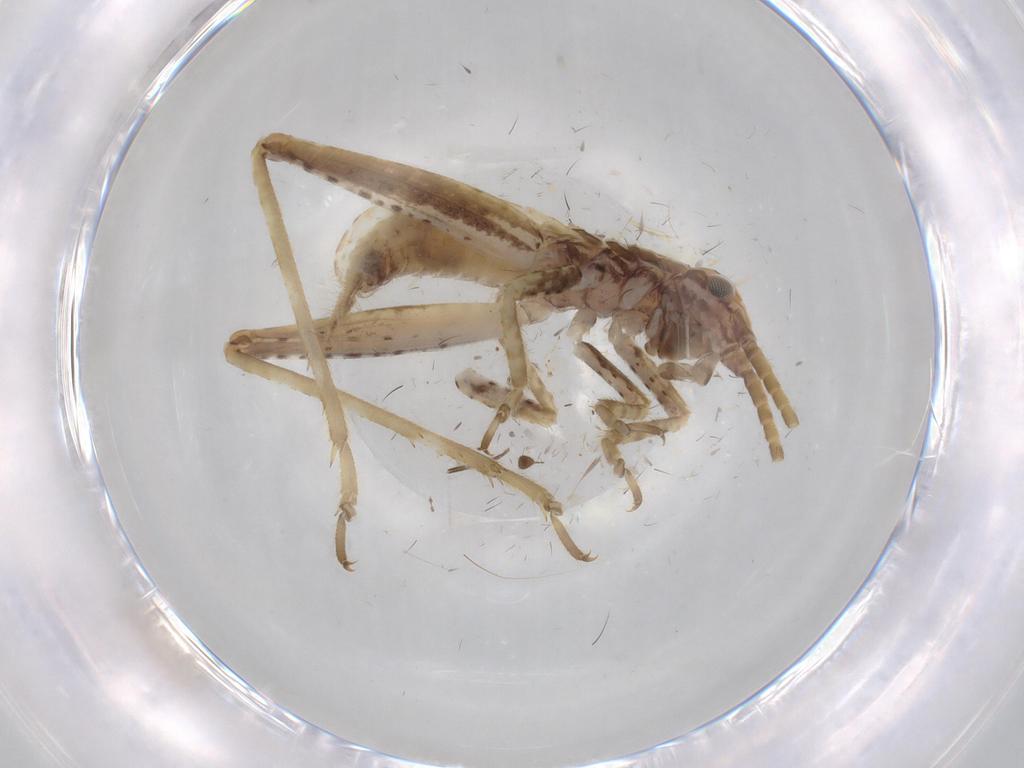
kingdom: Animalia
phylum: Arthropoda
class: Insecta
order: Orthoptera
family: Gryllidae
